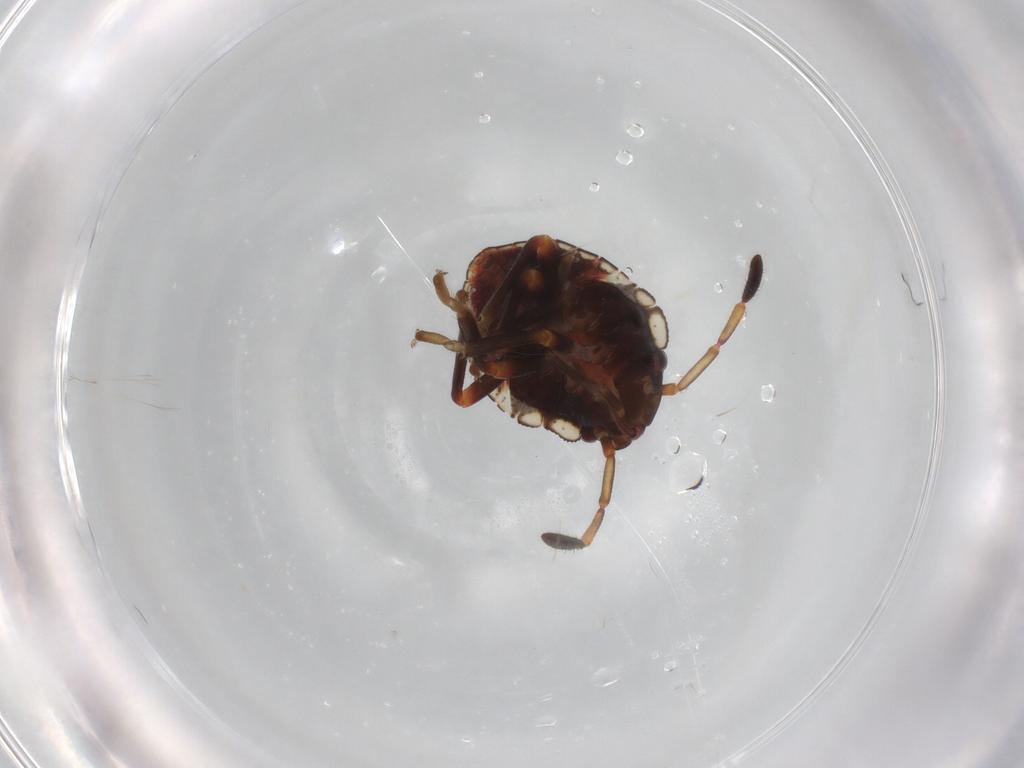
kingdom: Animalia
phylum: Arthropoda
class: Insecta
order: Hemiptera
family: Pentatomidae
